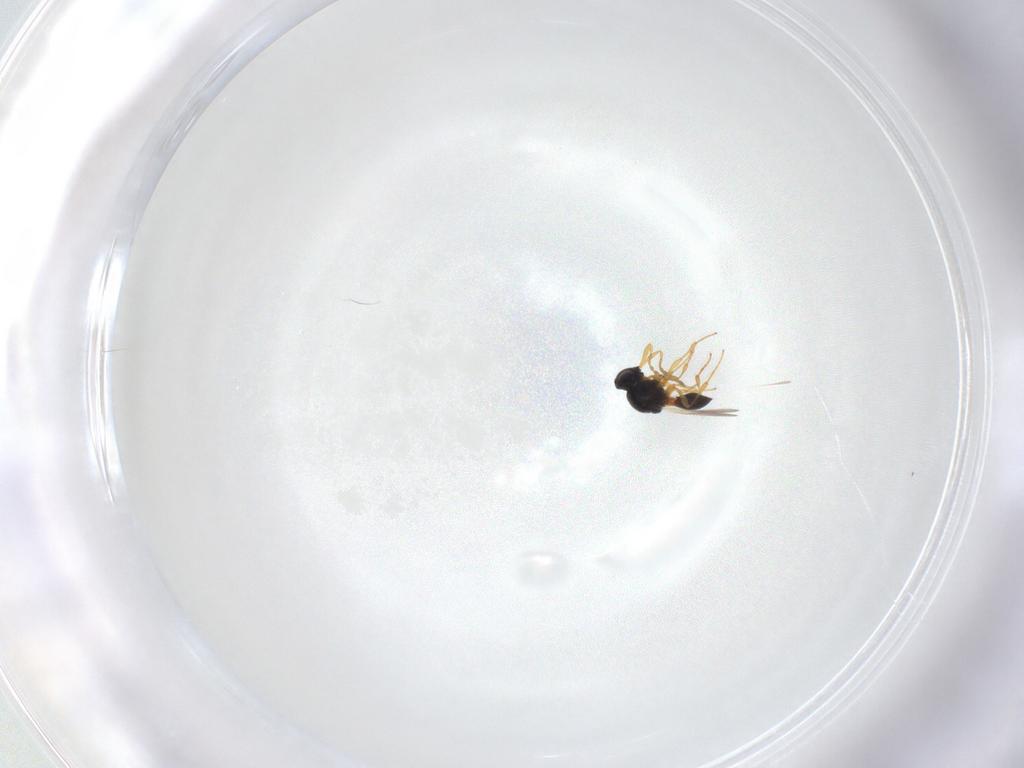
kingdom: Animalia
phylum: Arthropoda
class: Insecta
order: Hymenoptera
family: Platygastridae
